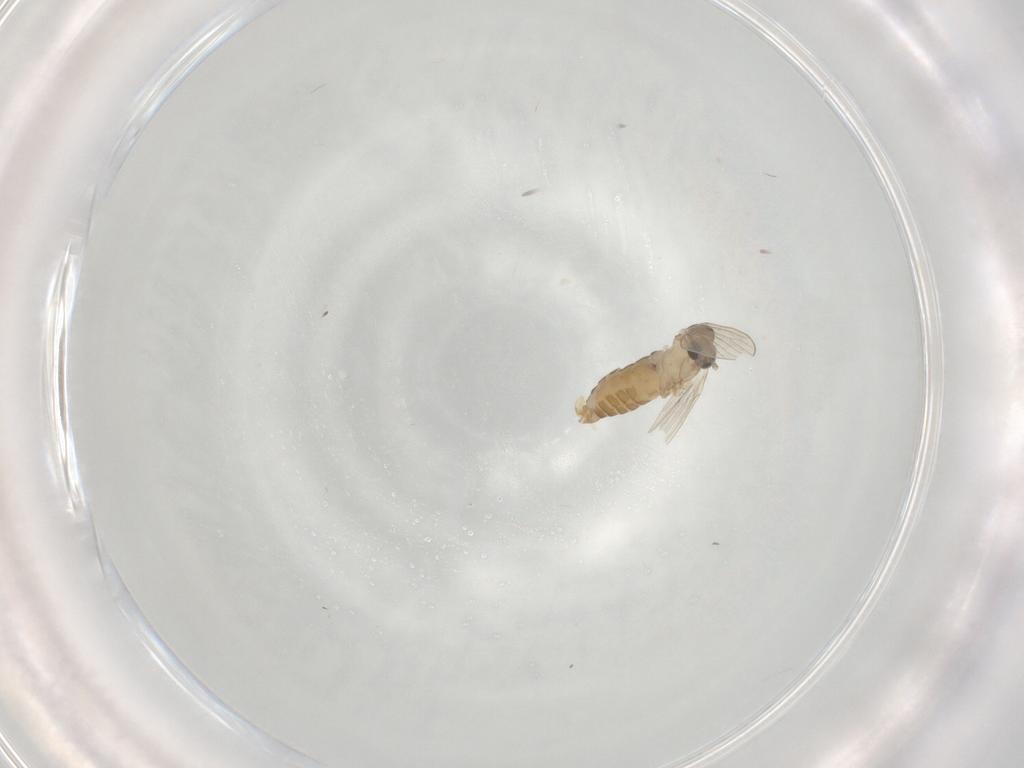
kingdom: Animalia
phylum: Arthropoda
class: Insecta
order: Diptera
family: Psychodidae
